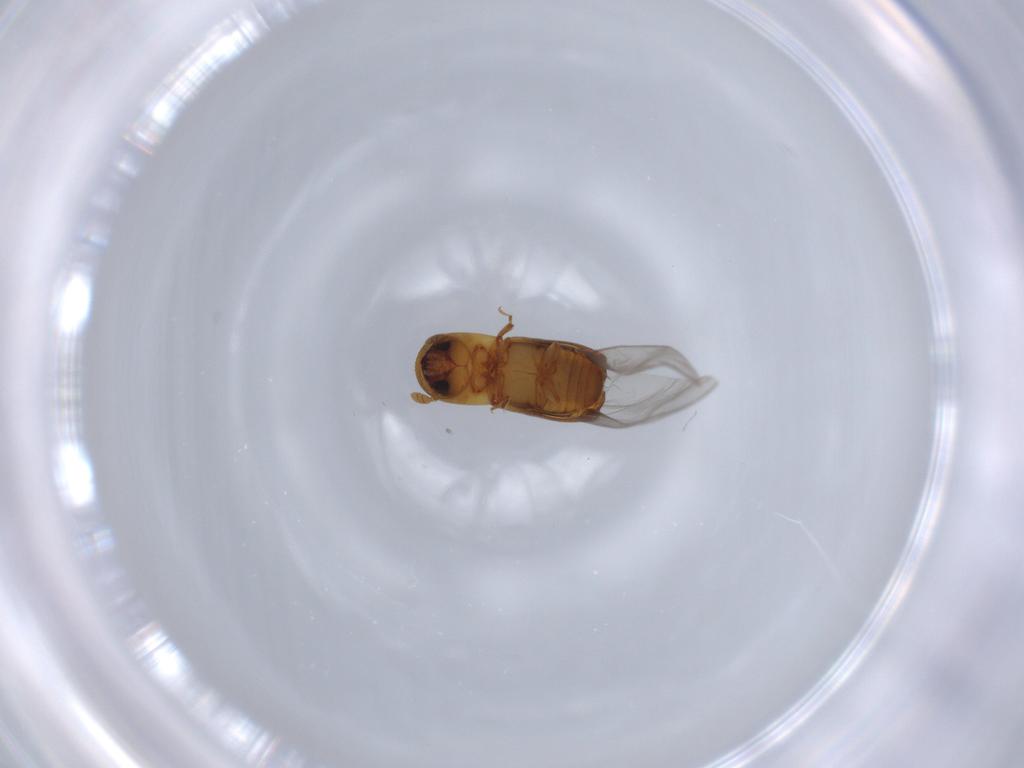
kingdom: Animalia
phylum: Arthropoda
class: Insecta
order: Coleoptera
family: Curculionidae
